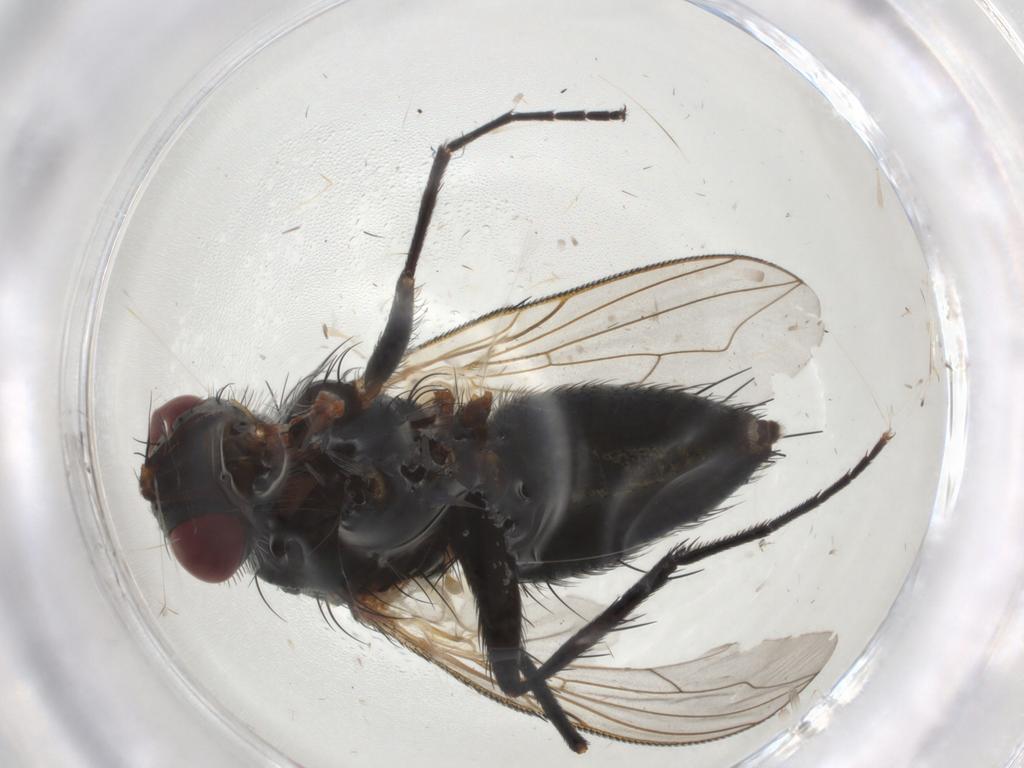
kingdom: Animalia
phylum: Arthropoda
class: Insecta
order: Diptera
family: Tachinidae
